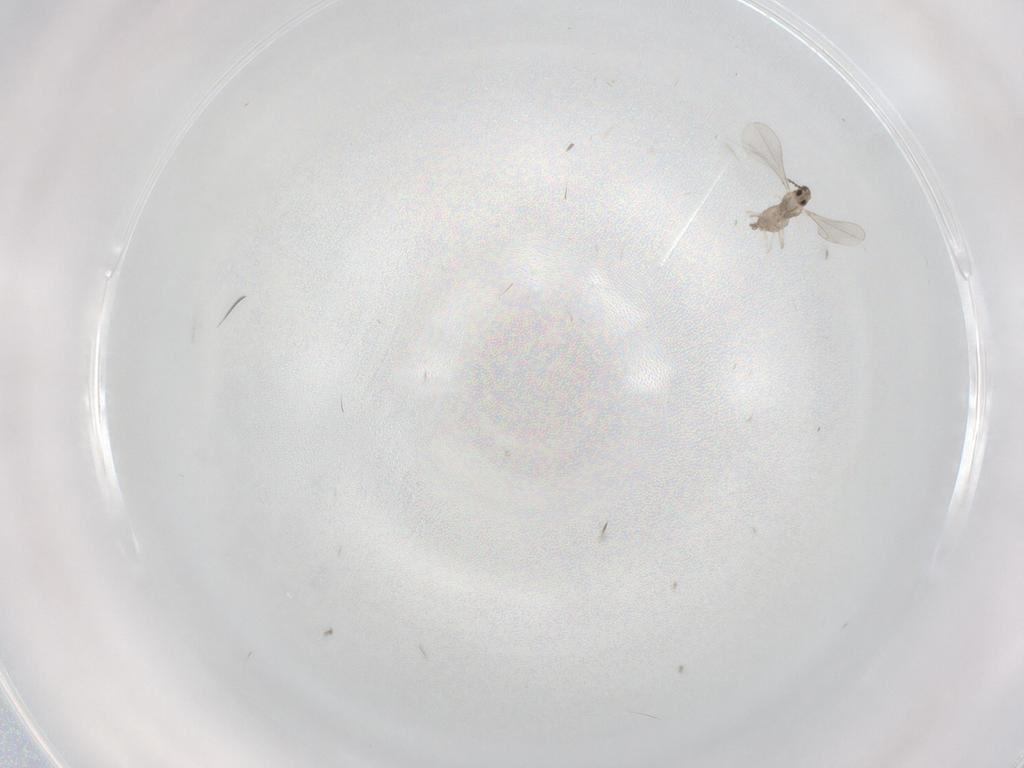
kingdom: Animalia
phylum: Arthropoda
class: Insecta
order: Diptera
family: Cecidomyiidae
